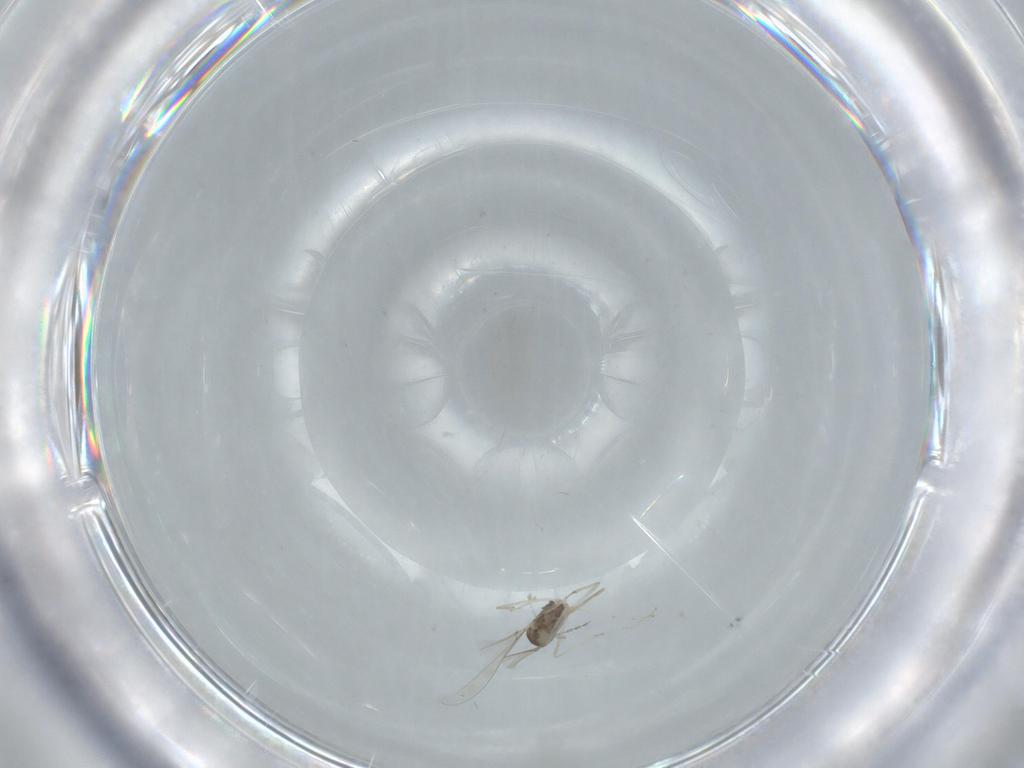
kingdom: Animalia
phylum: Arthropoda
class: Insecta
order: Diptera
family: Cecidomyiidae
